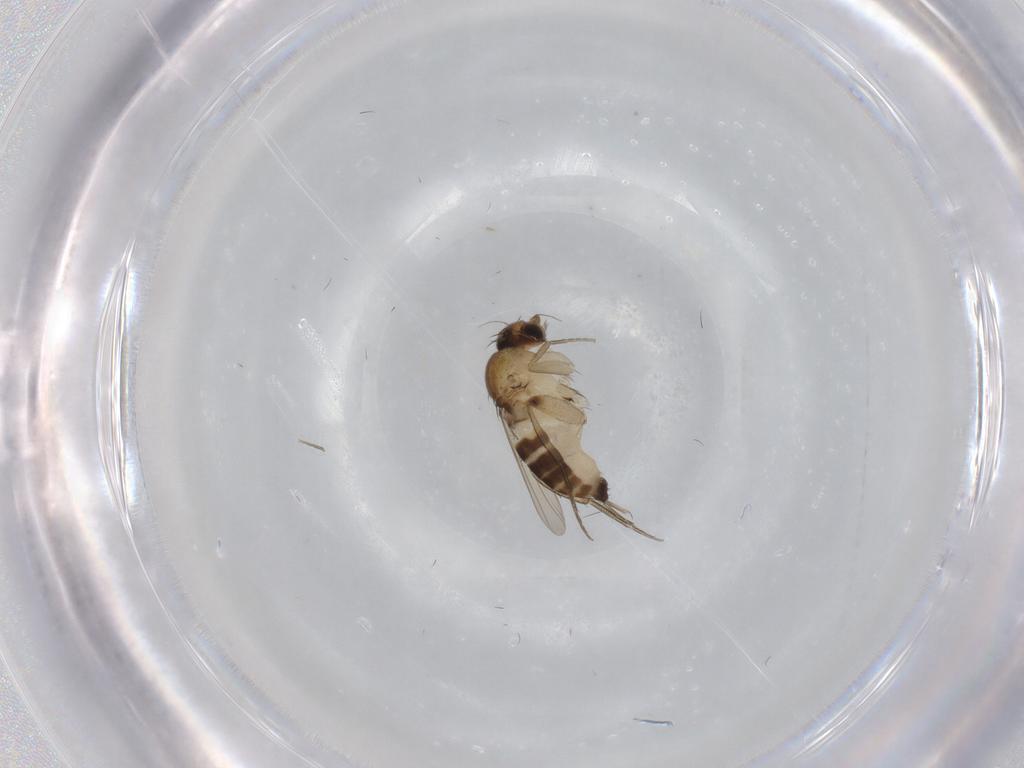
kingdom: Animalia
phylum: Arthropoda
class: Insecta
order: Diptera
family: Phoridae
